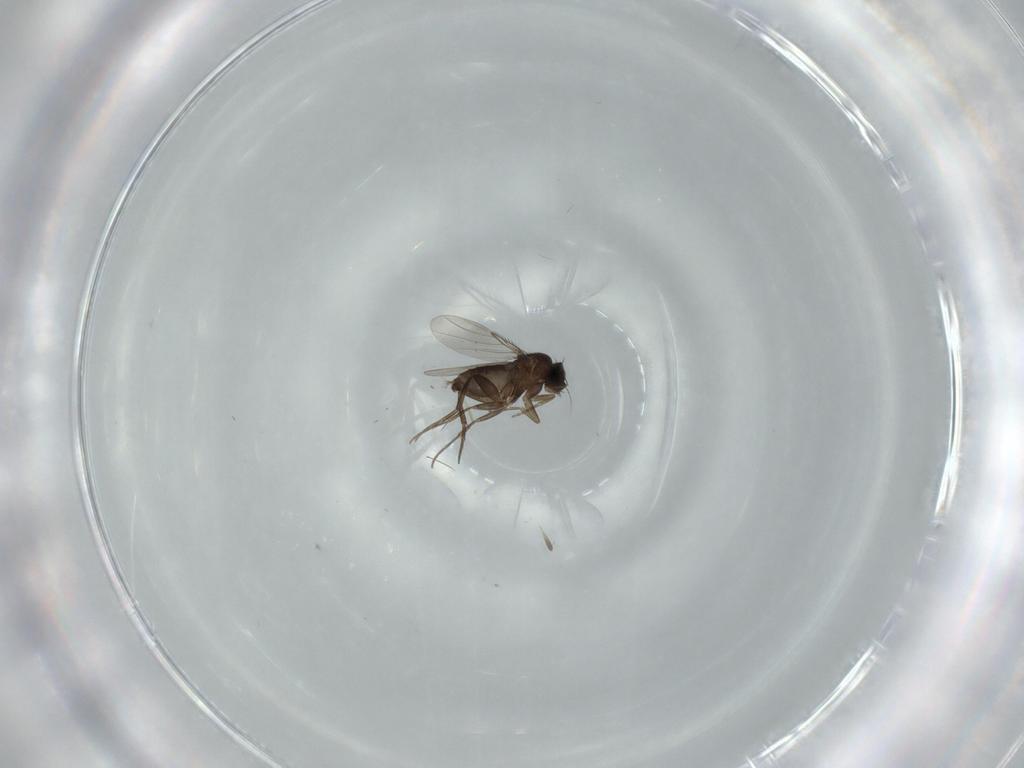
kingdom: Animalia
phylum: Arthropoda
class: Insecta
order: Diptera
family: Phoridae
